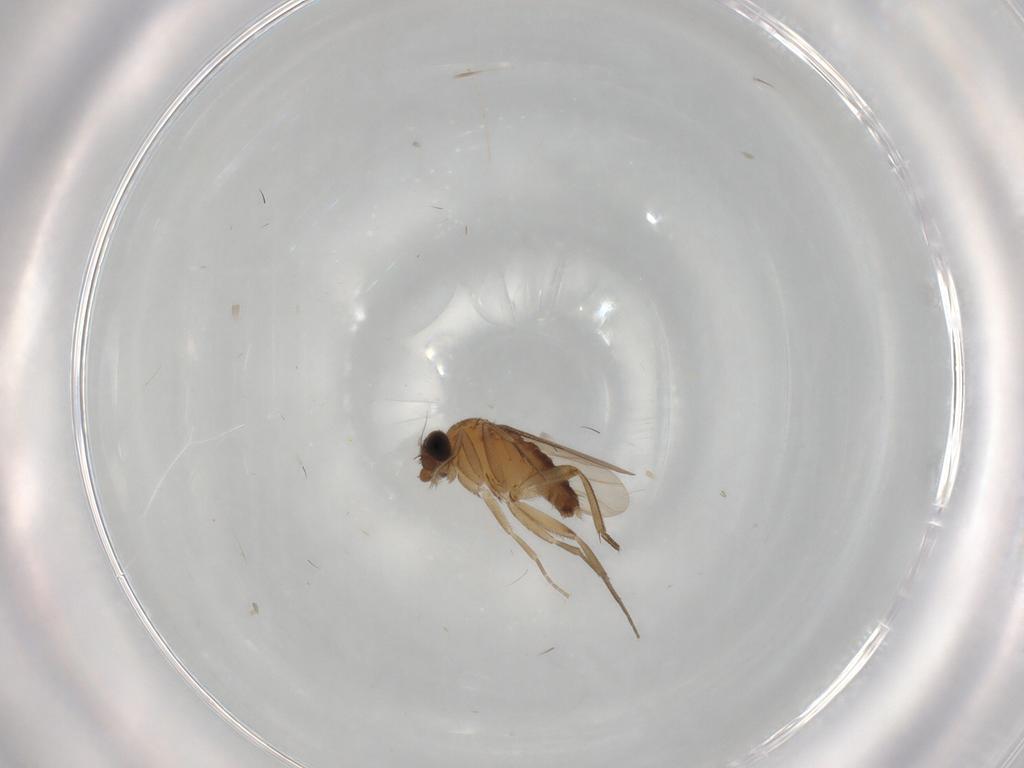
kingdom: Animalia
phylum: Arthropoda
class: Insecta
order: Diptera
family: Phoridae
